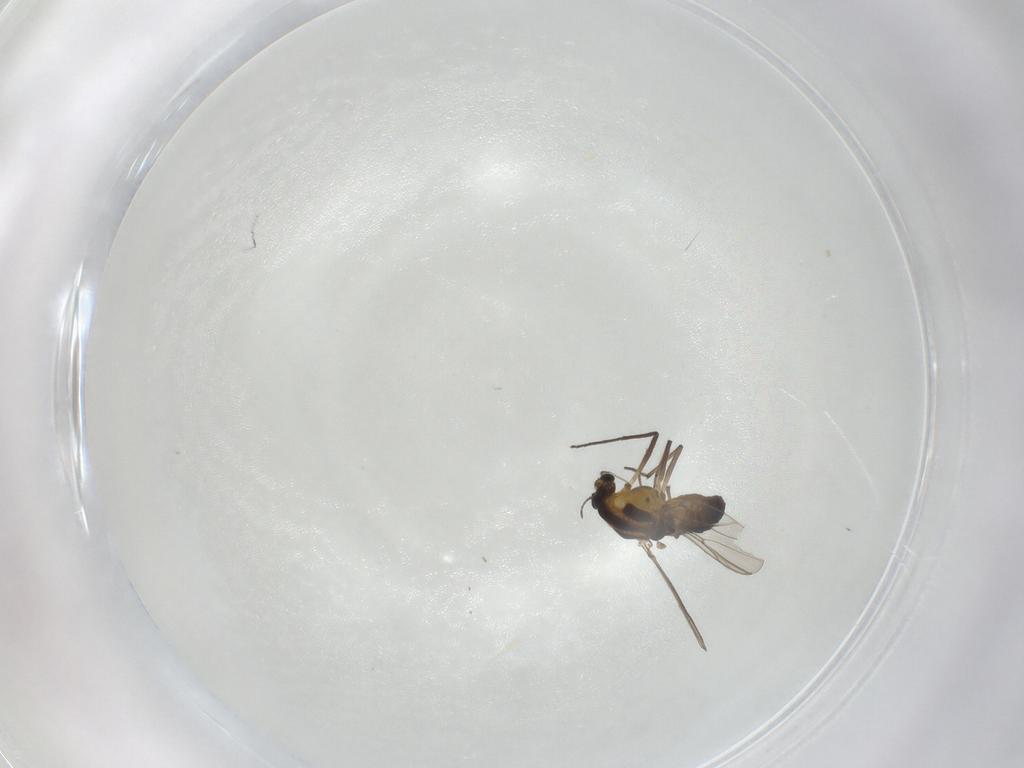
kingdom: Animalia
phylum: Arthropoda
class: Insecta
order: Diptera
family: Chironomidae
